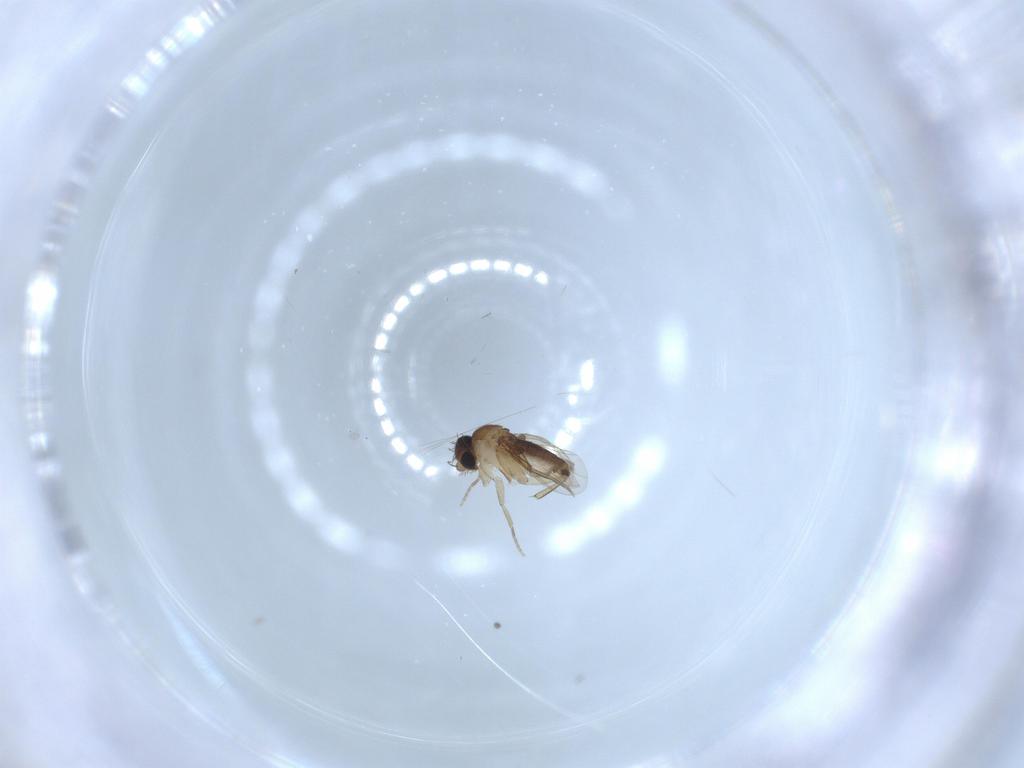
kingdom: Animalia
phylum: Arthropoda
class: Insecta
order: Diptera
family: Phoridae
